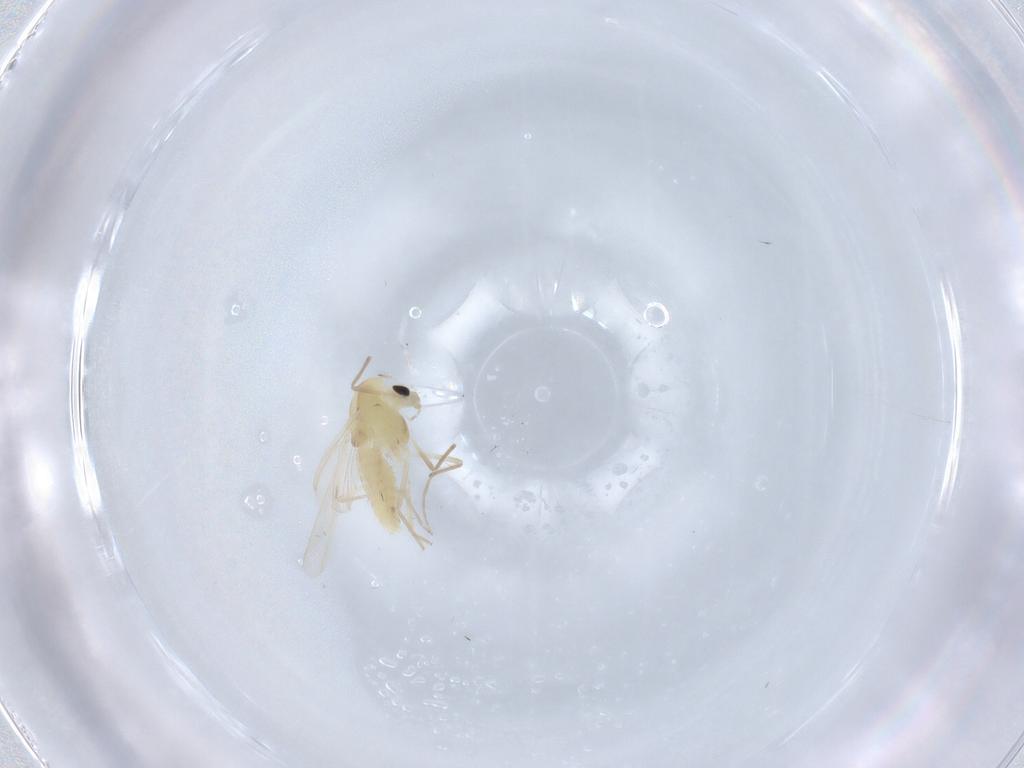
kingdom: Animalia
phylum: Arthropoda
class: Insecta
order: Diptera
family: Chironomidae
